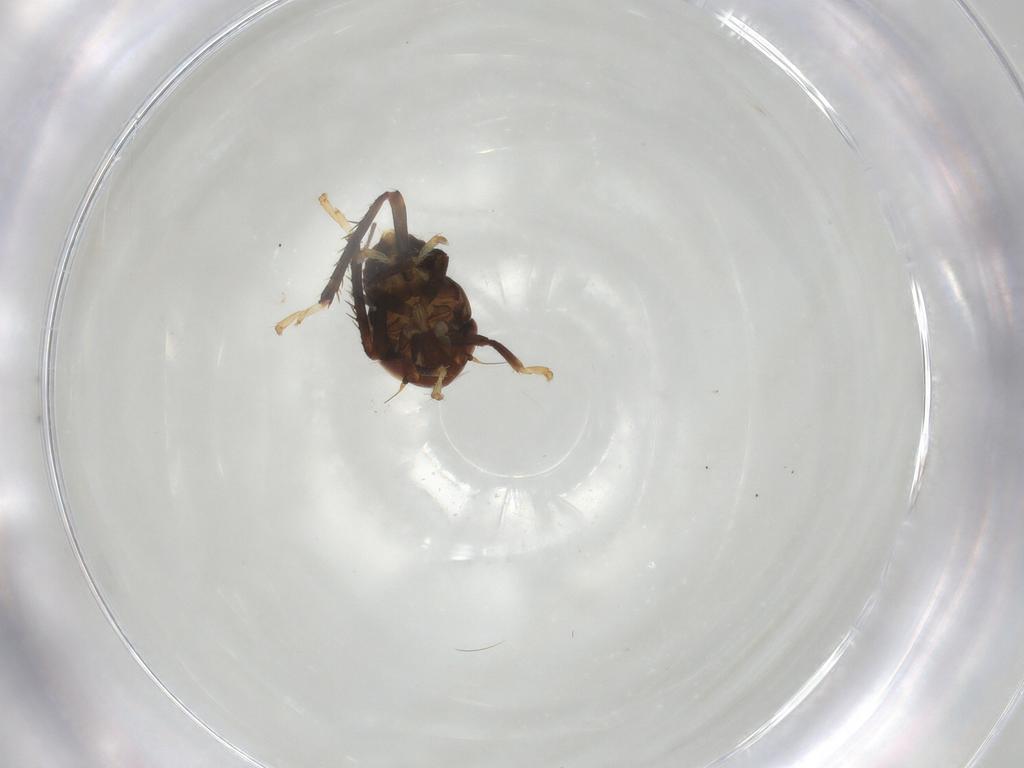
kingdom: Animalia
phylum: Arthropoda
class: Insecta
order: Hemiptera
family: Cicadellidae
